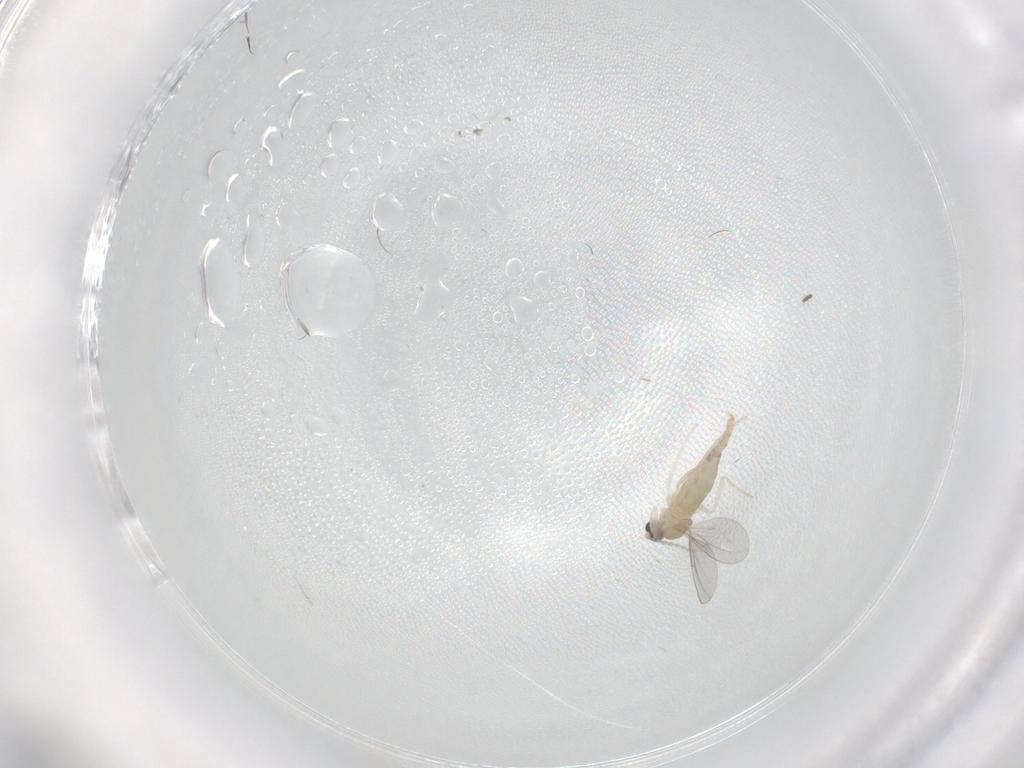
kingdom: Animalia
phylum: Arthropoda
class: Insecta
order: Diptera
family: Cecidomyiidae
